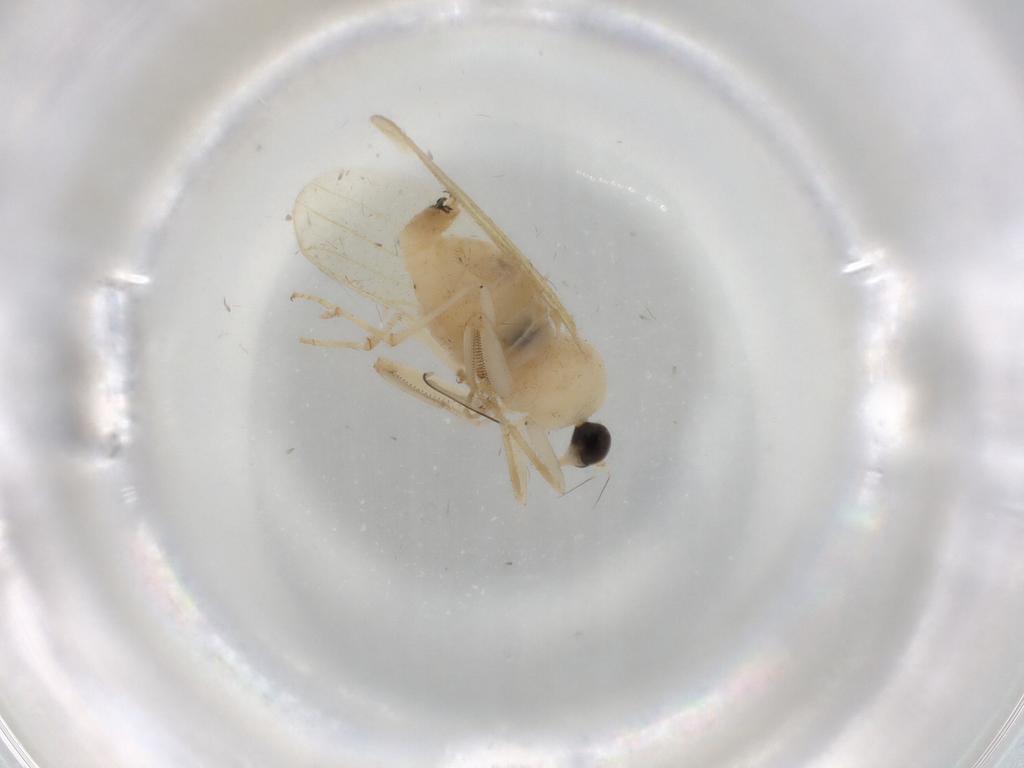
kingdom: Animalia
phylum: Arthropoda
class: Insecta
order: Diptera
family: Hybotidae
